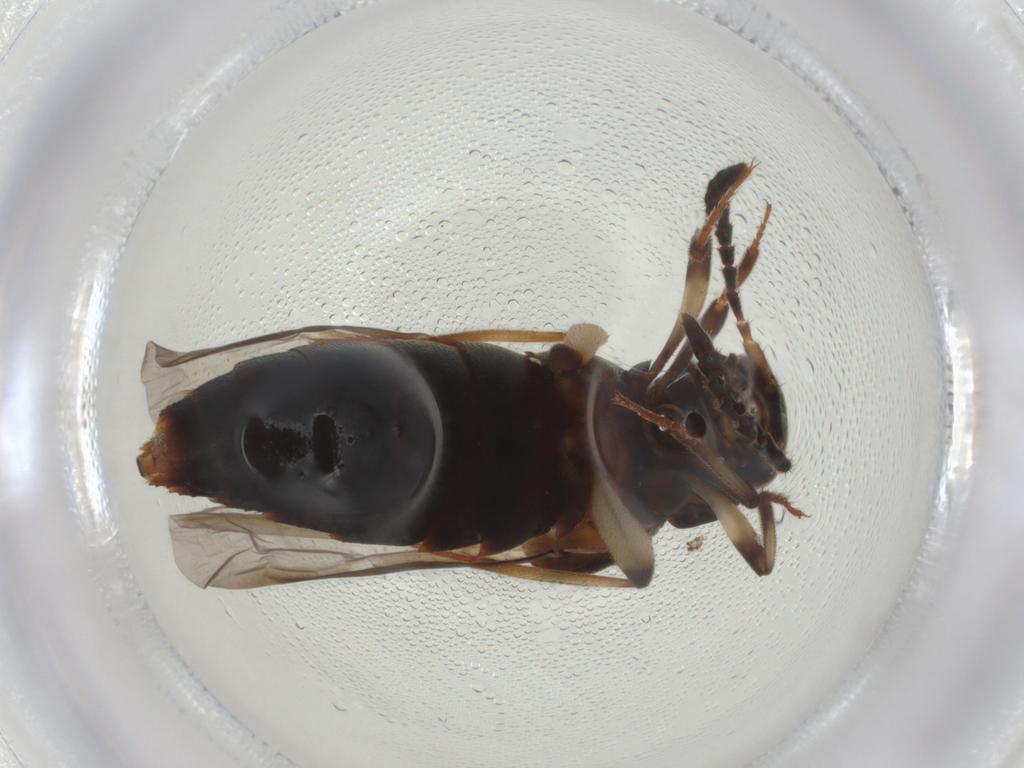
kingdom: Animalia
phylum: Arthropoda
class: Insecta
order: Coleoptera
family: Staphylinidae
